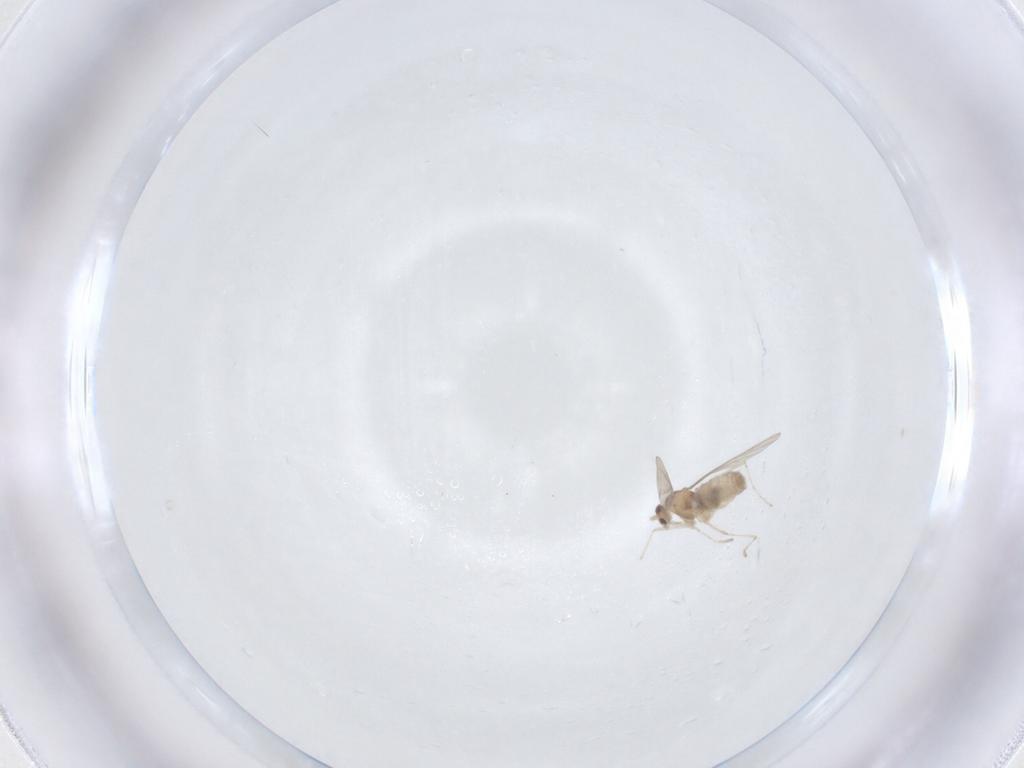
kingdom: Animalia
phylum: Arthropoda
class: Insecta
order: Diptera
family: Cecidomyiidae
